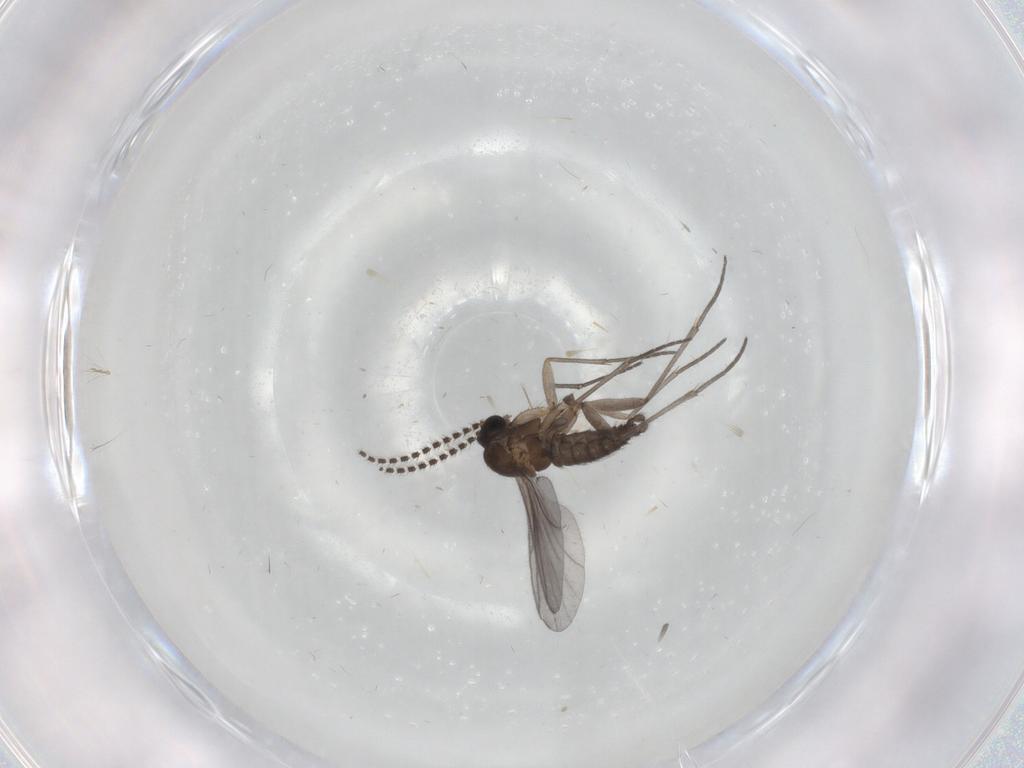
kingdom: Animalia
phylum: Arthropoda
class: Insecta
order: Diptera
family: Sciaridae
